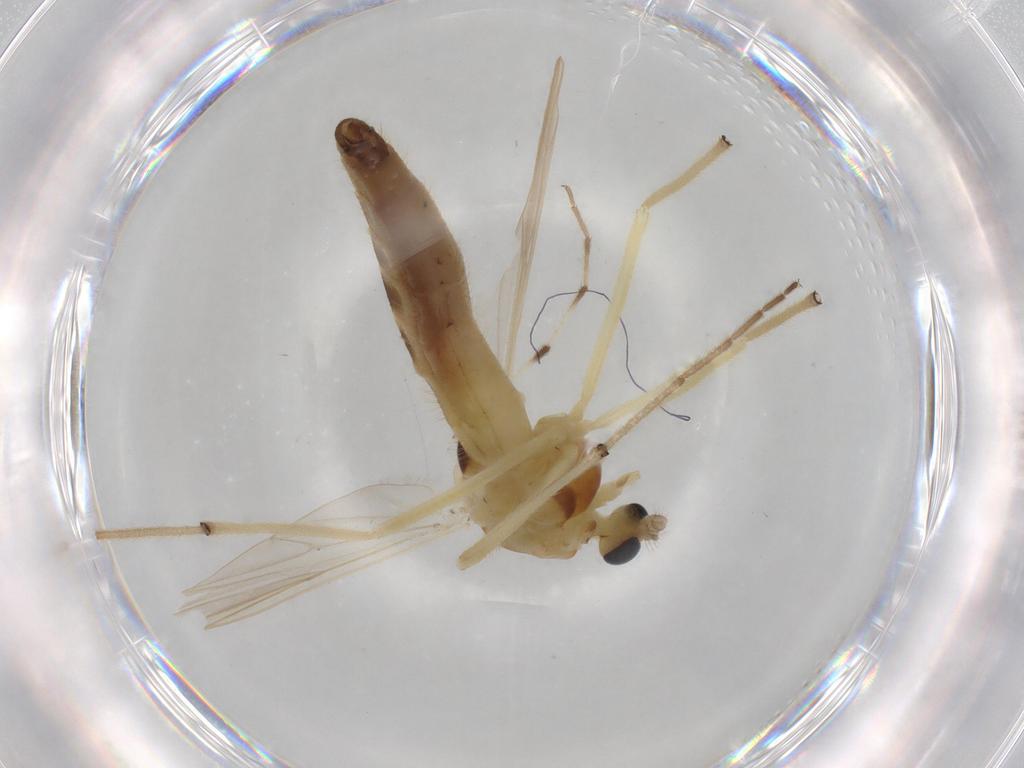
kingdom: Animalia
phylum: Arthropoda
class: Insecta
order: Diptera
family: Chironomidae
